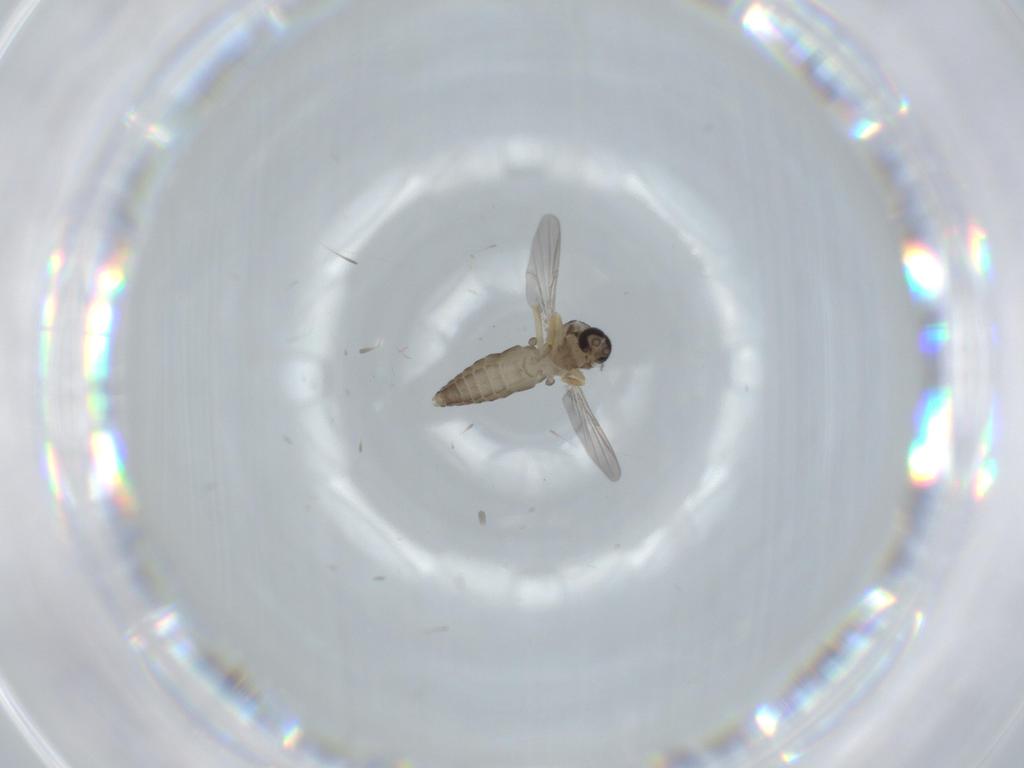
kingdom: Animalia
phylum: Arthropoda
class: Insecta
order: Diptera
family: Ceratopogonidae
